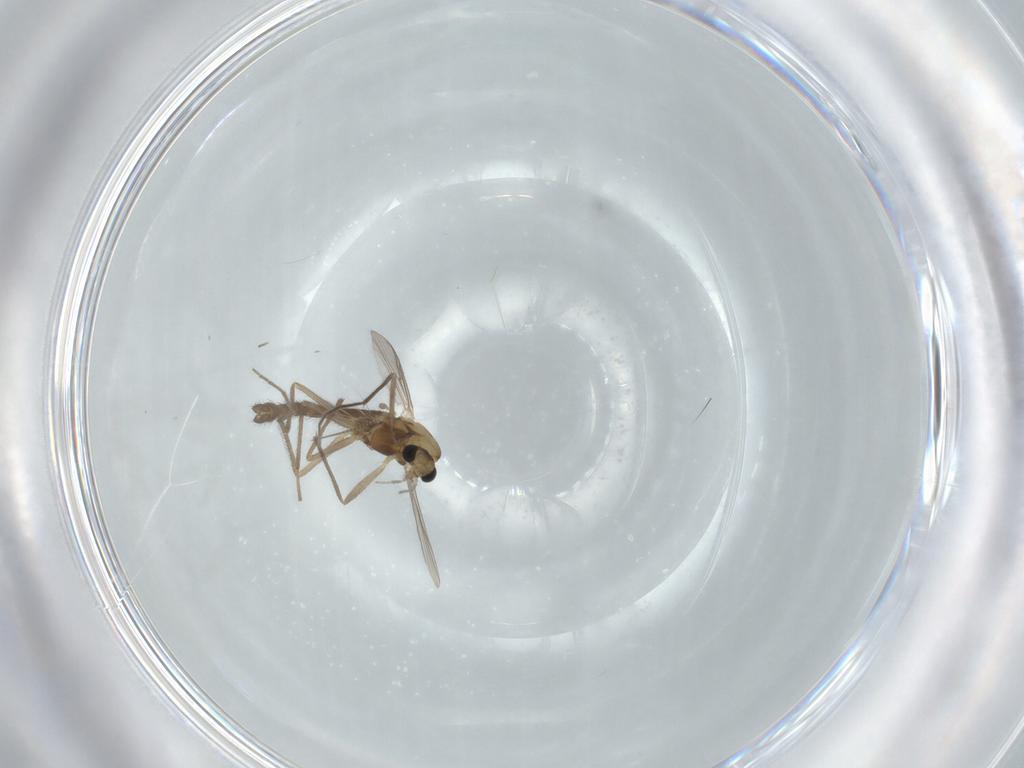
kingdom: Animalia
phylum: Arthropoda
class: Insecta
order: Diptera
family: Chironomidae
